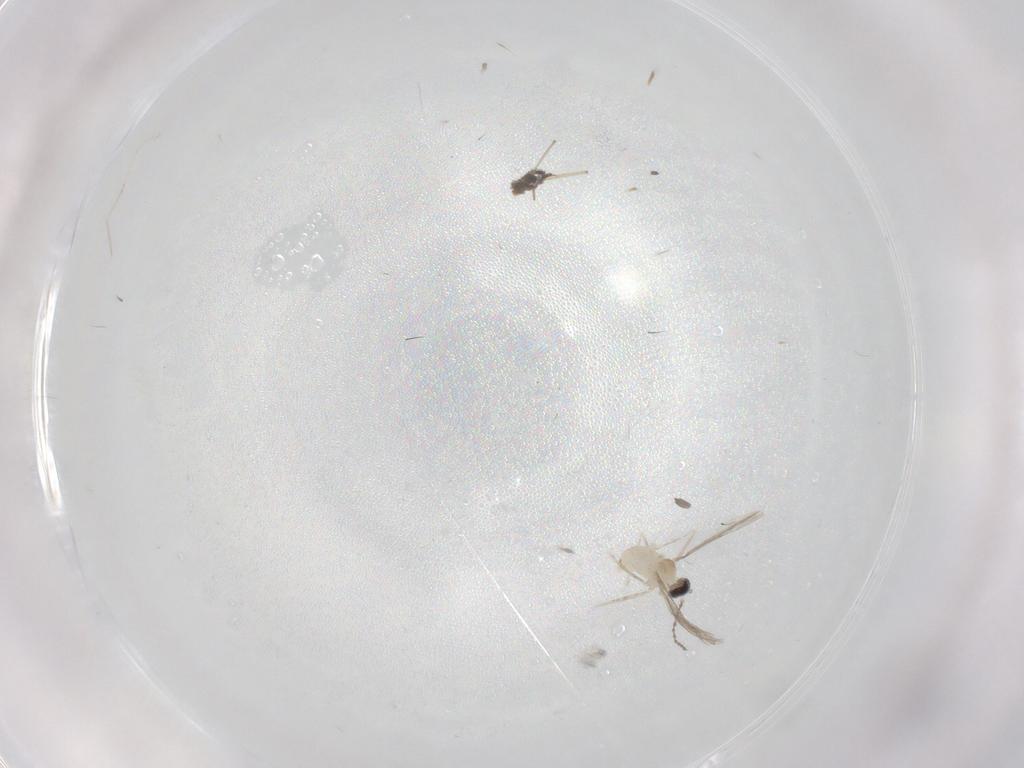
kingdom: Animalia
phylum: Arthropoda
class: Insecta
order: Diptera
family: Cecidomyiidae
